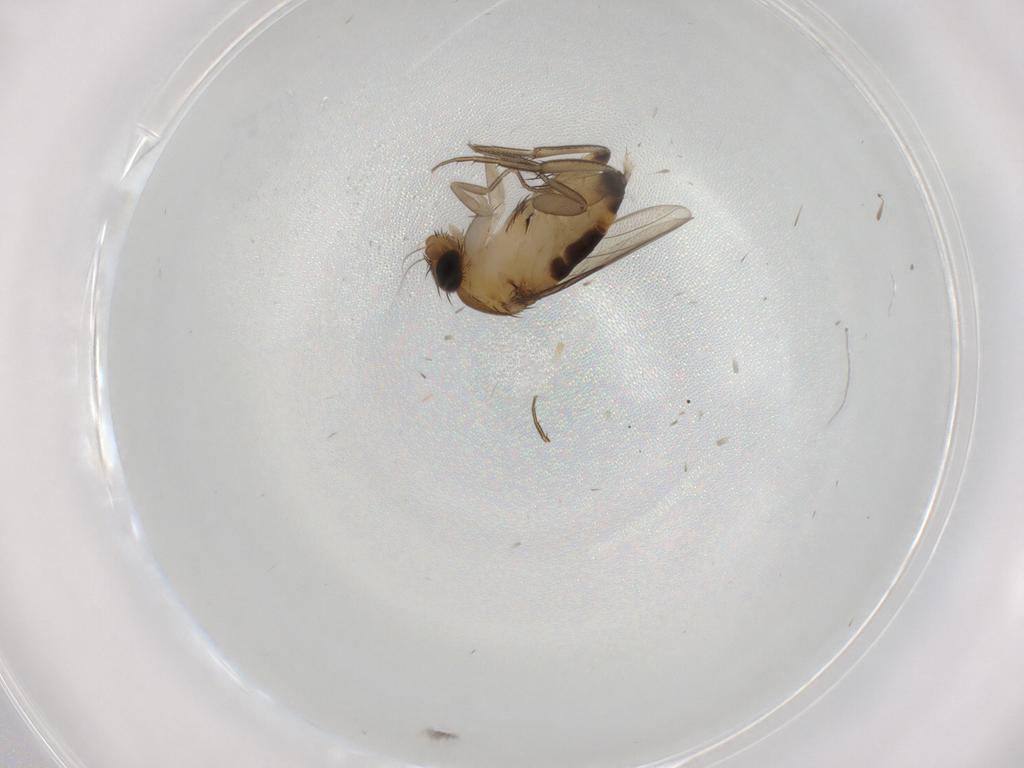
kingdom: Animalia
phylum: Arthropoda
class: Insecta
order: Diptera
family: Phoridae
